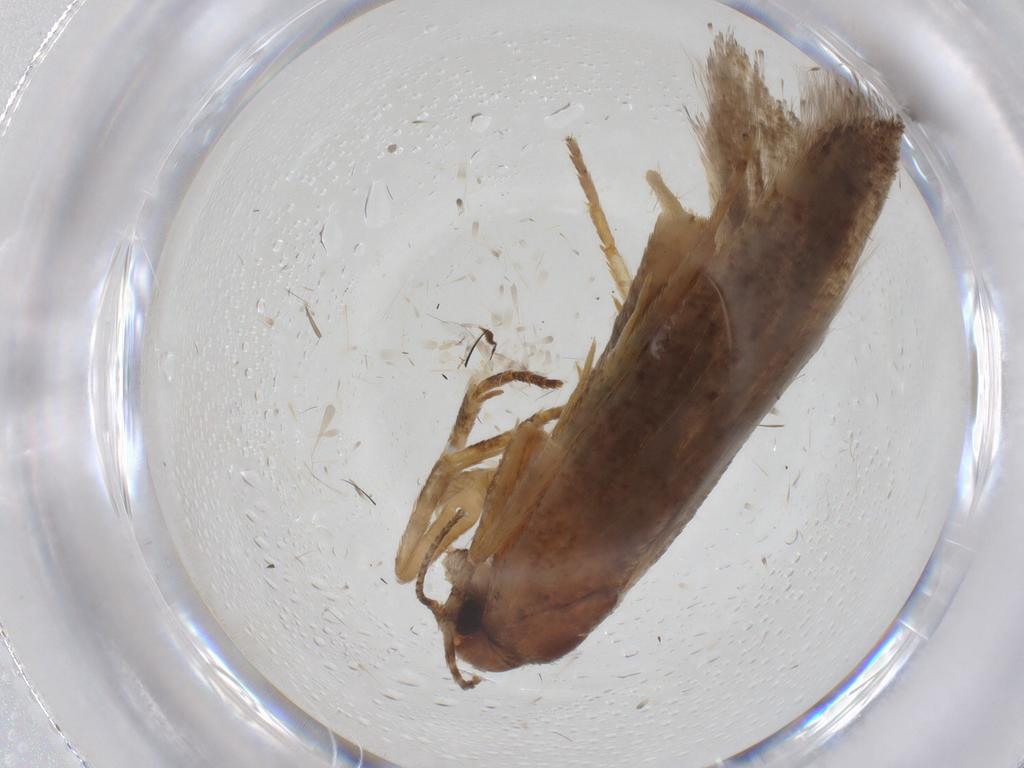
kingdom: Animalia
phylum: Arthropoda
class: Insecta
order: Lepidoptera
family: Gelechiidae
